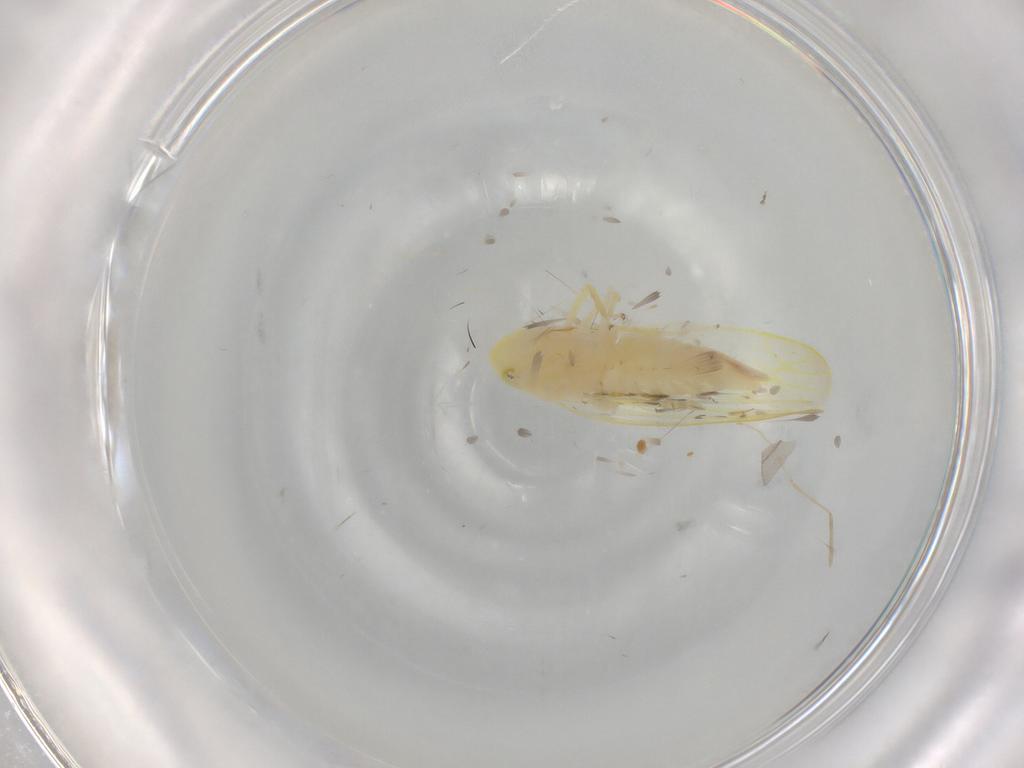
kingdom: Animalia
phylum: Arthropoda
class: Insecta
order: Hemiptera
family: Cicadellidae
